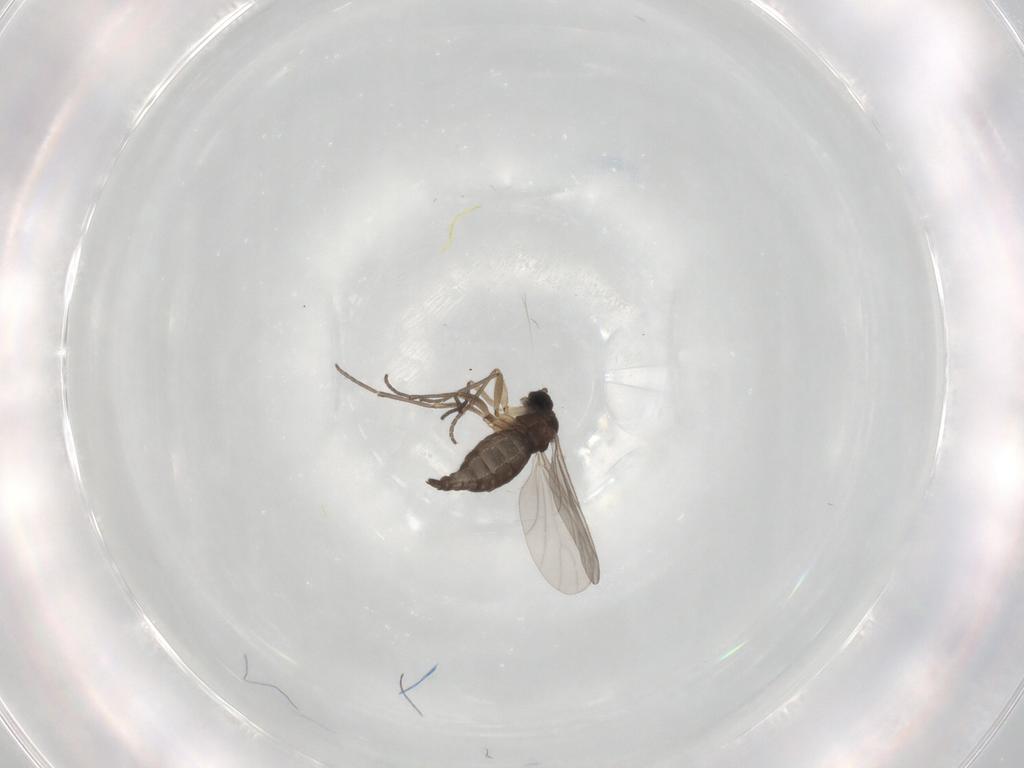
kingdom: Animalia
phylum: Arthropoda
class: Insecta
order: Diptera
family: Sciaridae
